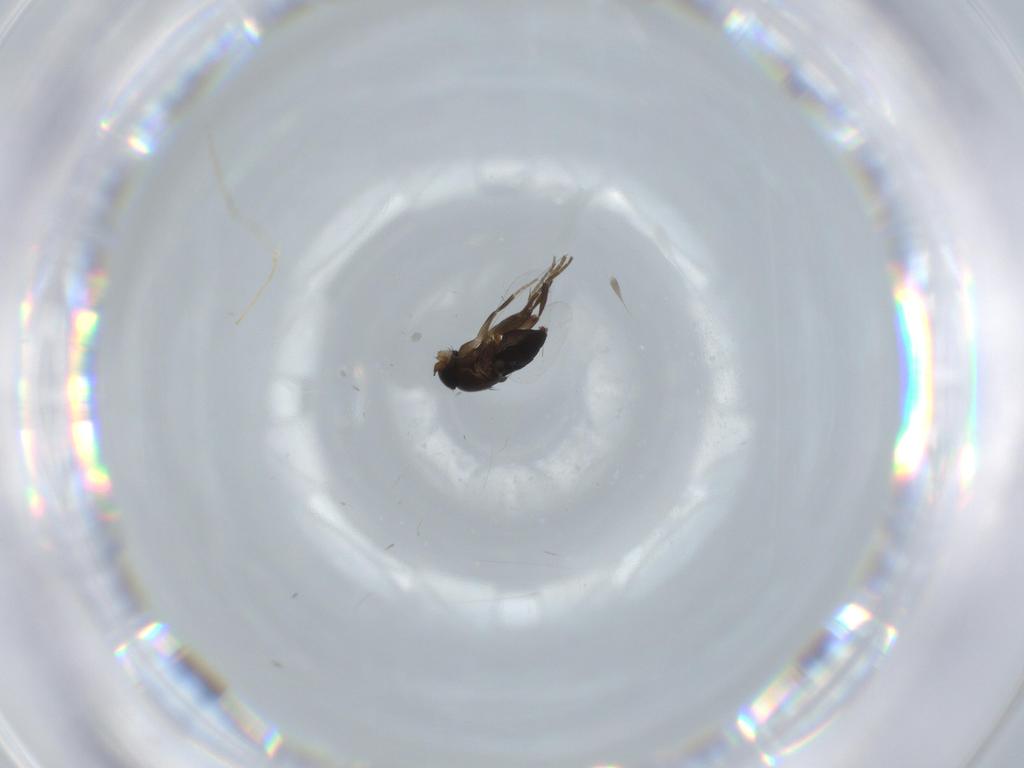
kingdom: Animalia
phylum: Arthropoda
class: Insecta
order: Diptera
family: Phoridae
